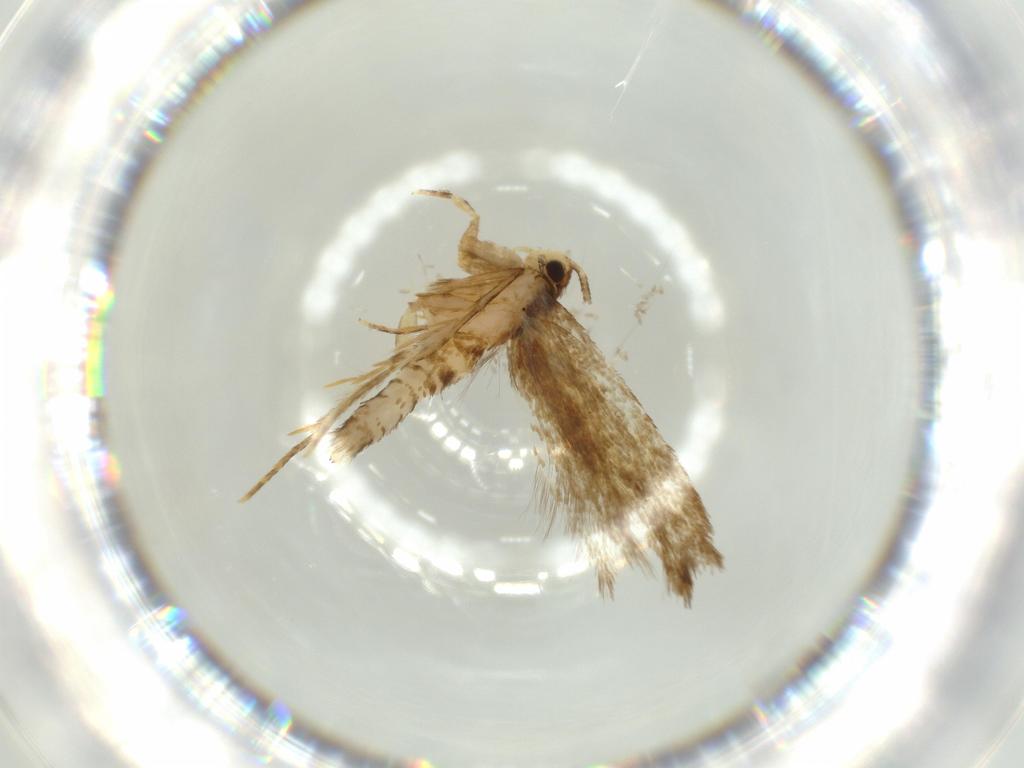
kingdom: Animalia
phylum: Arthropoda
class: Insecta
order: Lepidoptera
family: Tineidae
